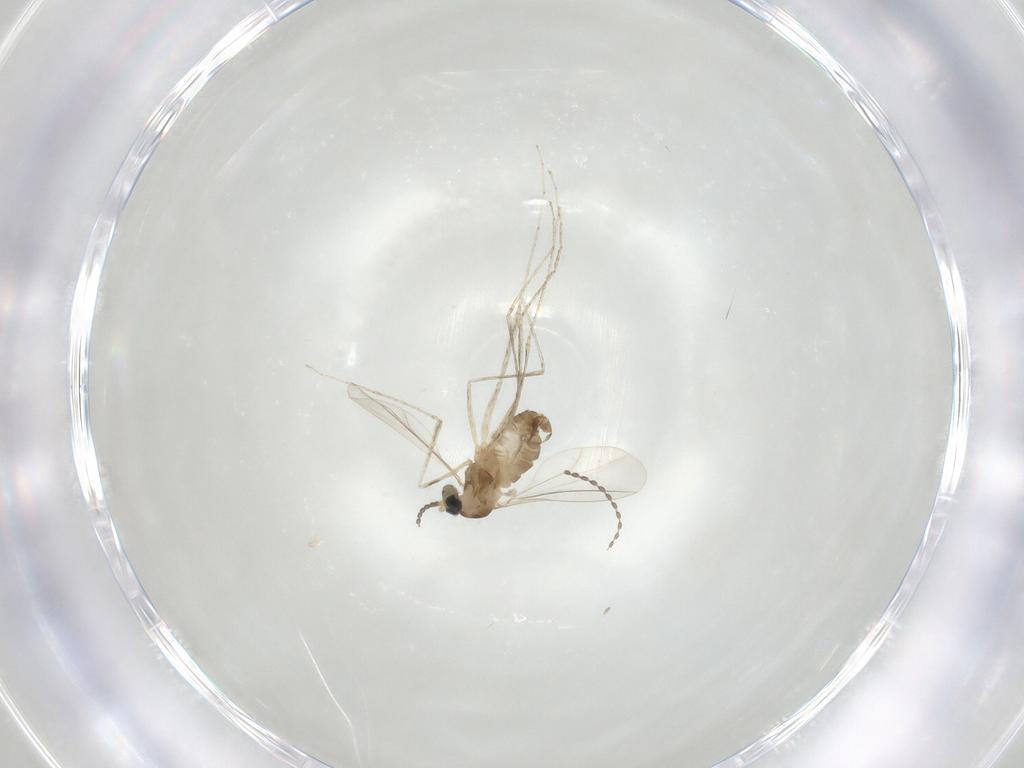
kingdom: Animalia
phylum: Arthropoda
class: Insecta
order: Diptera
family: Cecidomyiidae
